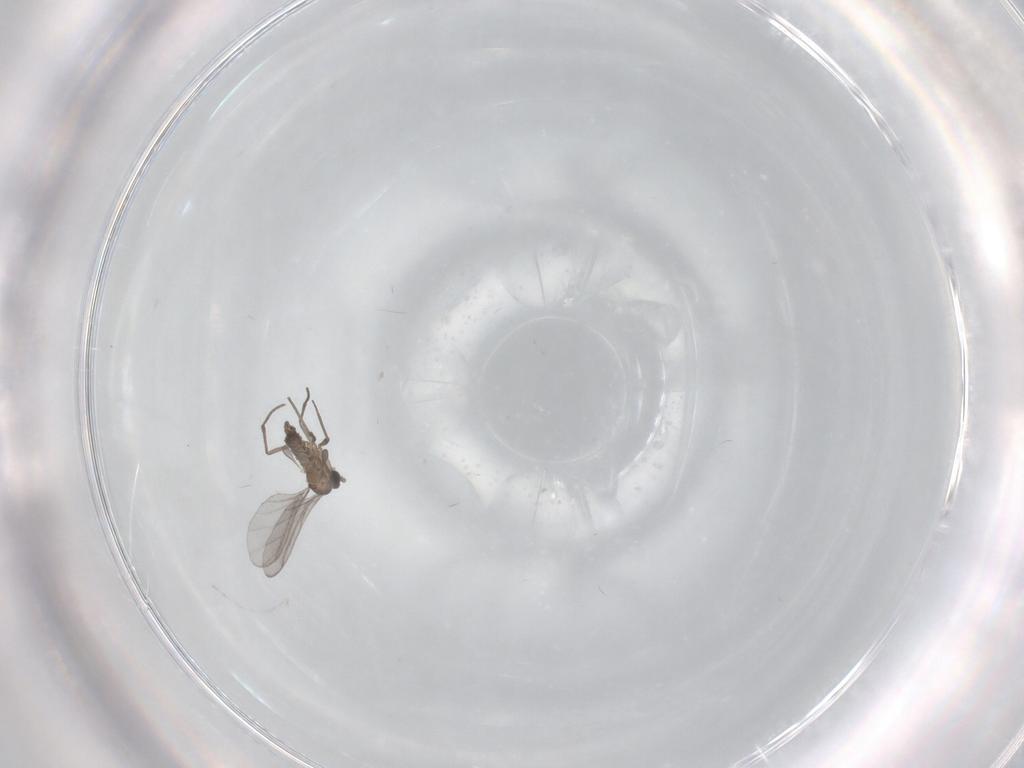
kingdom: Animalia
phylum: Arthropoda
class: Insecta
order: Diptera
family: Sciaridae
